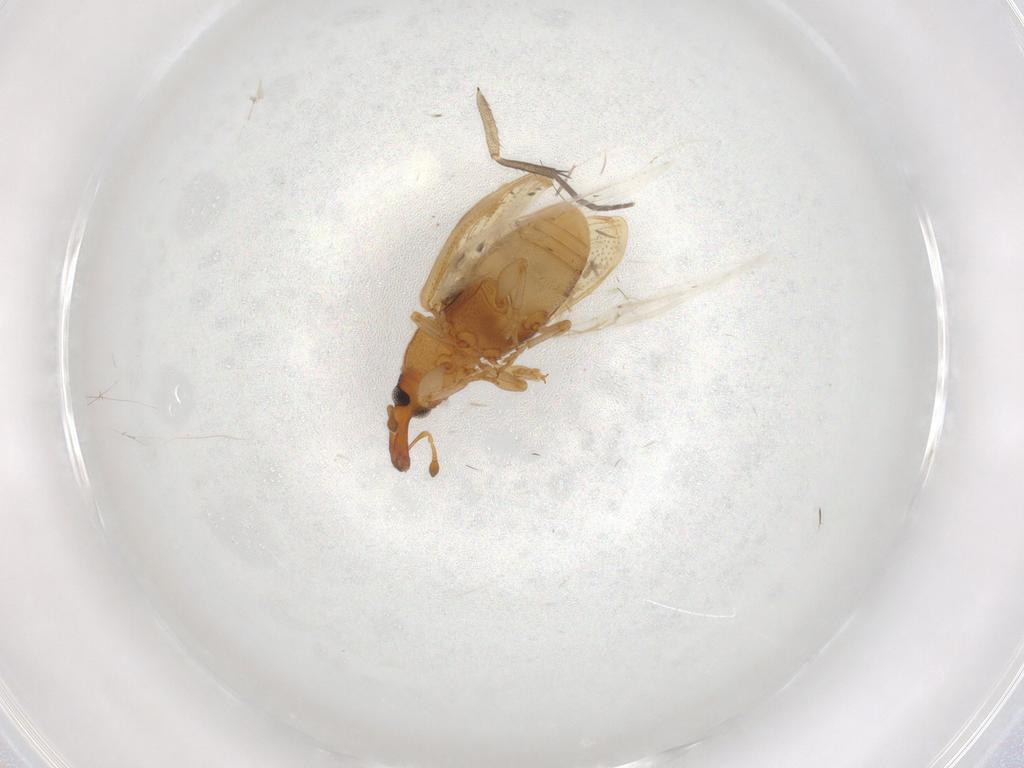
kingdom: Animalia
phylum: Arthropoda
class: Insecta
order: Coleoptera
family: Curculionidae
